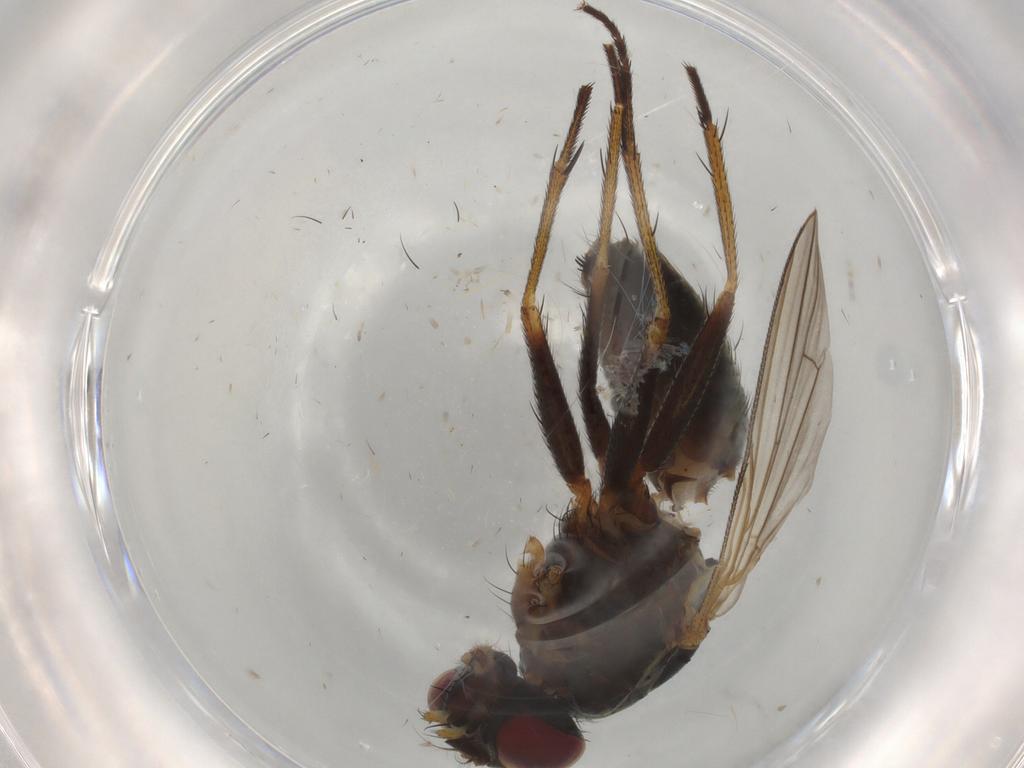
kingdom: Animalia
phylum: Arthropoda
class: Insecta
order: Diptera
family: Muscidae
